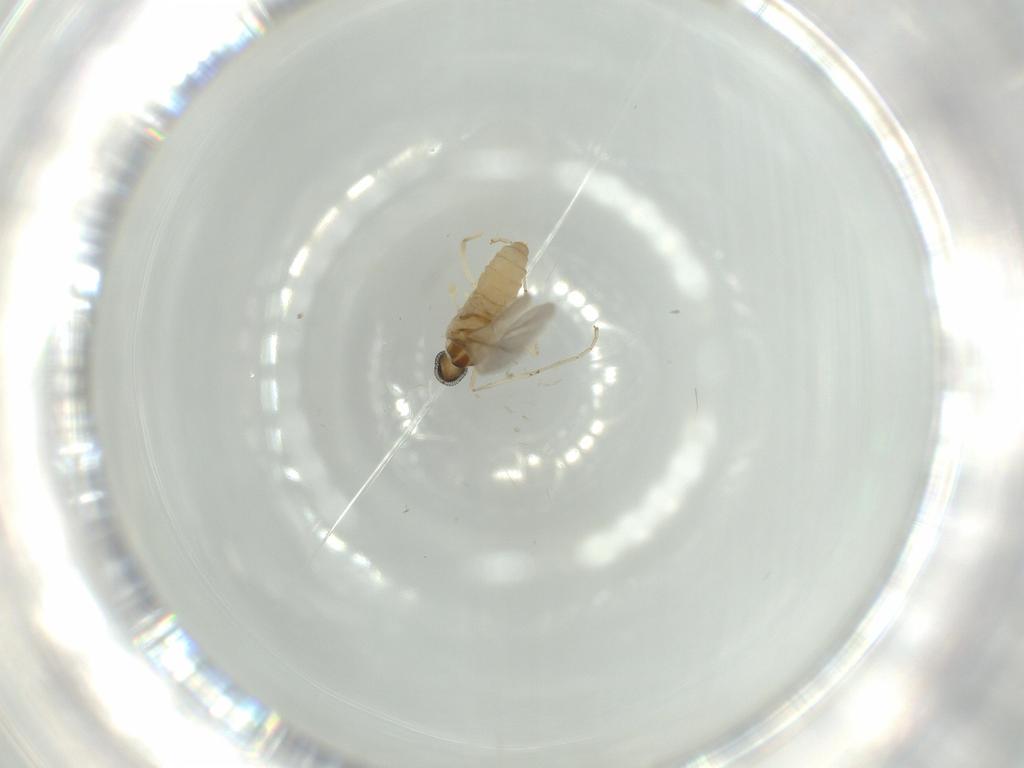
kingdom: Animalia
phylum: Arthropoda
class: Insecta
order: Diptera
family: Cecidomyiidae
